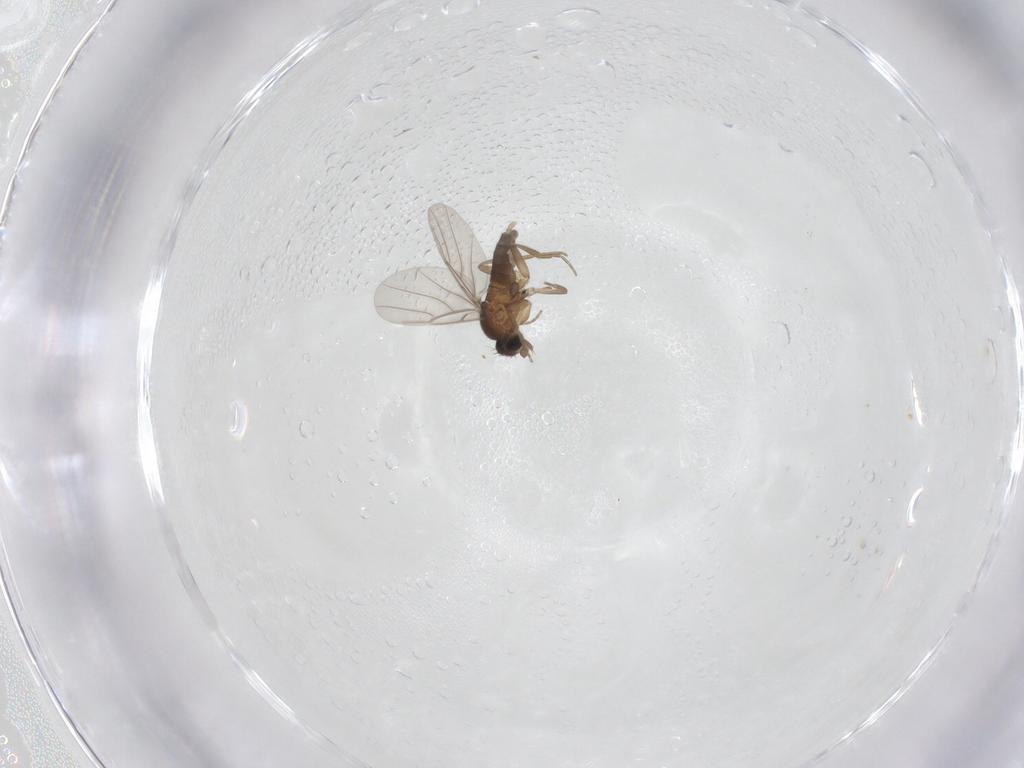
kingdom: Animalia
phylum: Arthropoda
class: Insecta
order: Diptera
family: Phoridae
